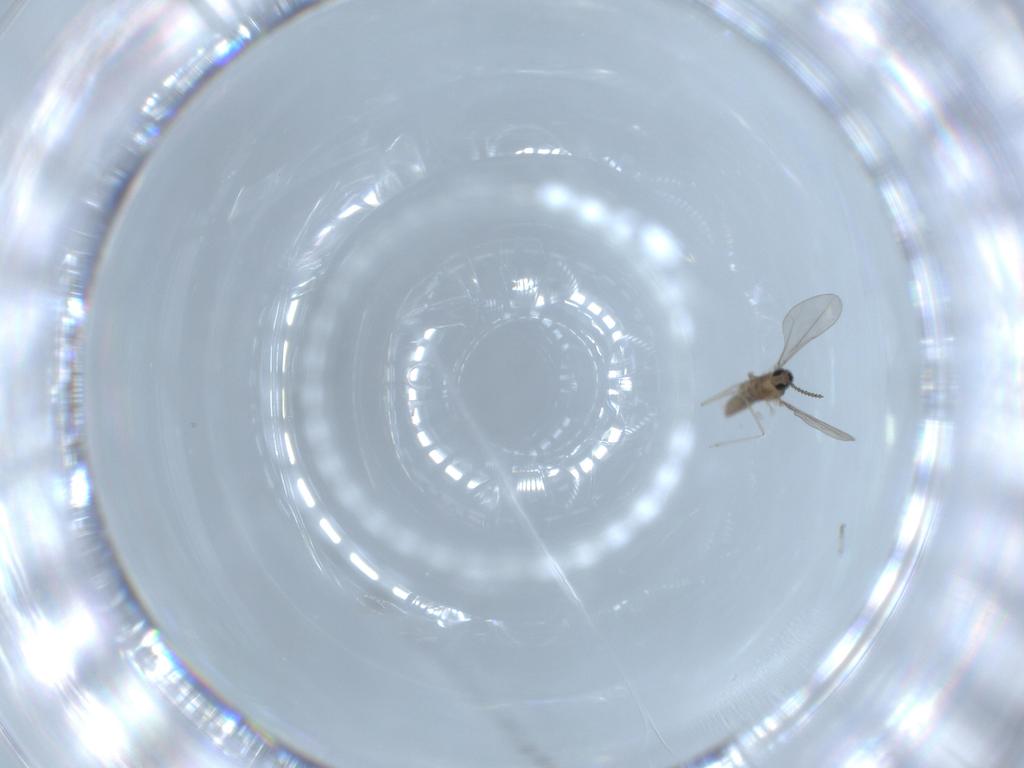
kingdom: Animalia
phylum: Arthropoda
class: Insecta
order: Diptera
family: Cecidomyiidae
